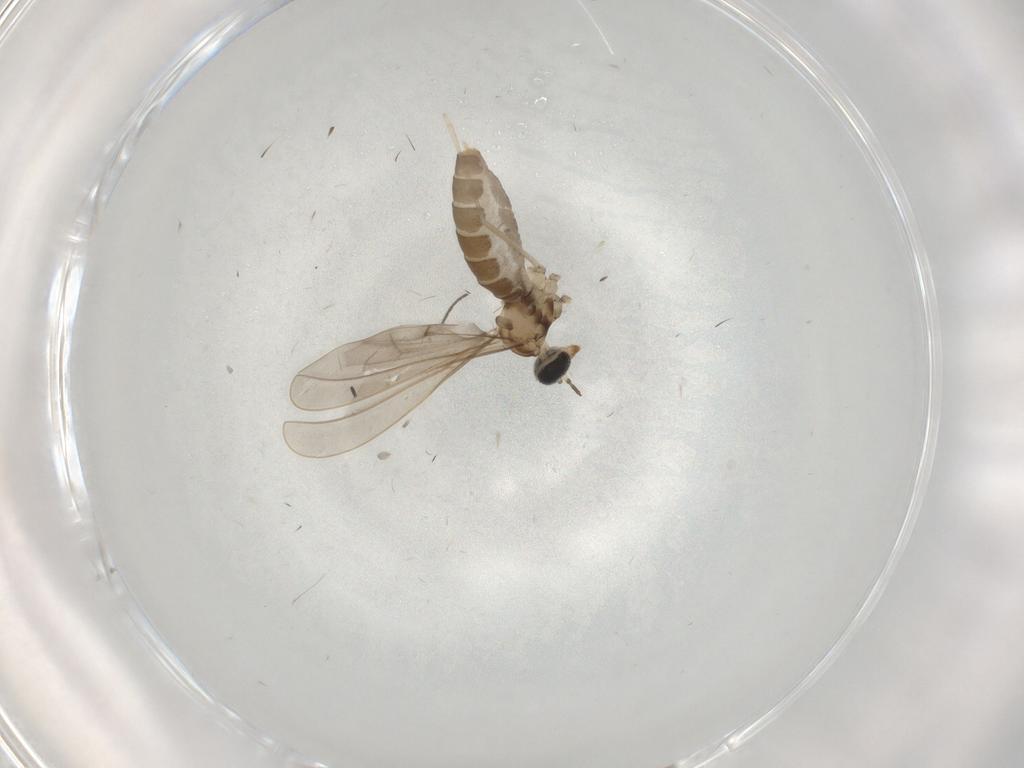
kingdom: Animalia
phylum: Arthropoda
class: Insecta
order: Diptera
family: Cecidomyiidae
